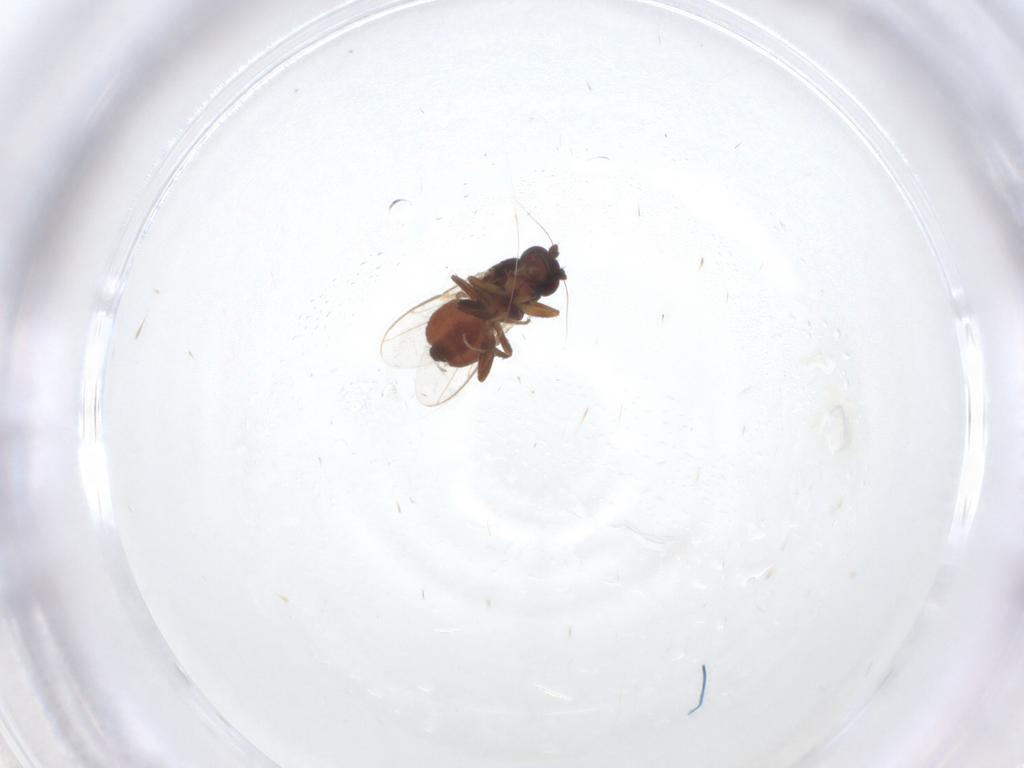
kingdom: Animalia
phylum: Arthropoda
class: Insecta
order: Diptera
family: Sphaeroceridae
